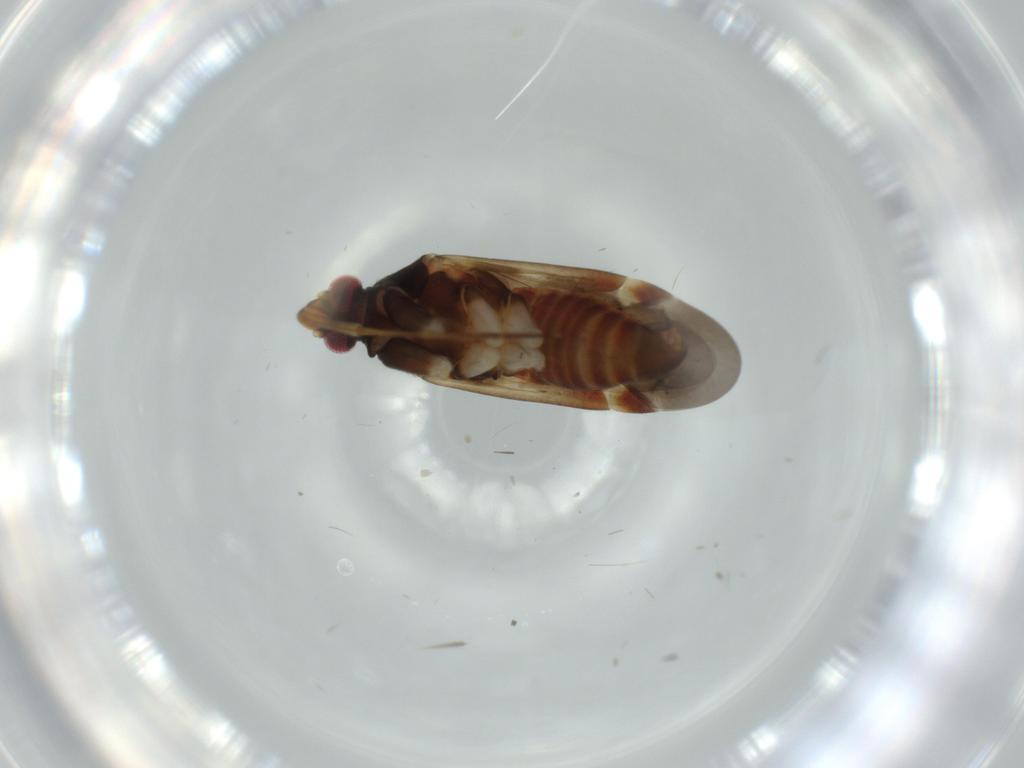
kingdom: Animalia
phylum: Arthropoda
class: Insecta
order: Hemiptera
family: Miridae
